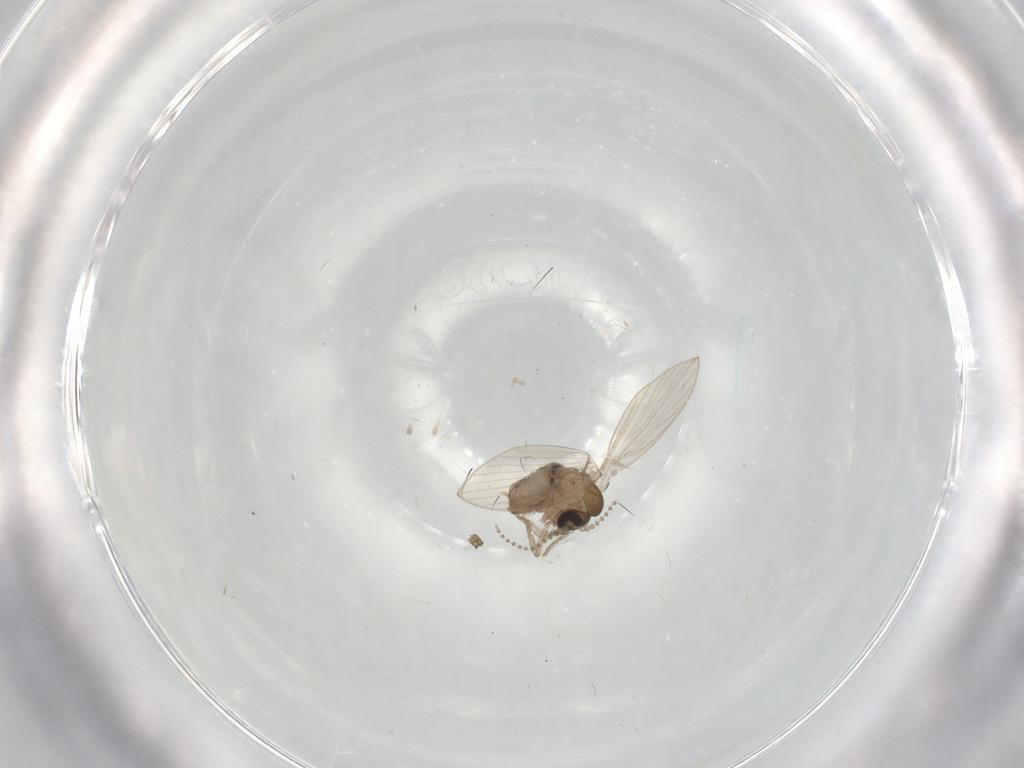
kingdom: Animalia
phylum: Arthropoda
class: Insecta
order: Diptera
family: Psychodidae
